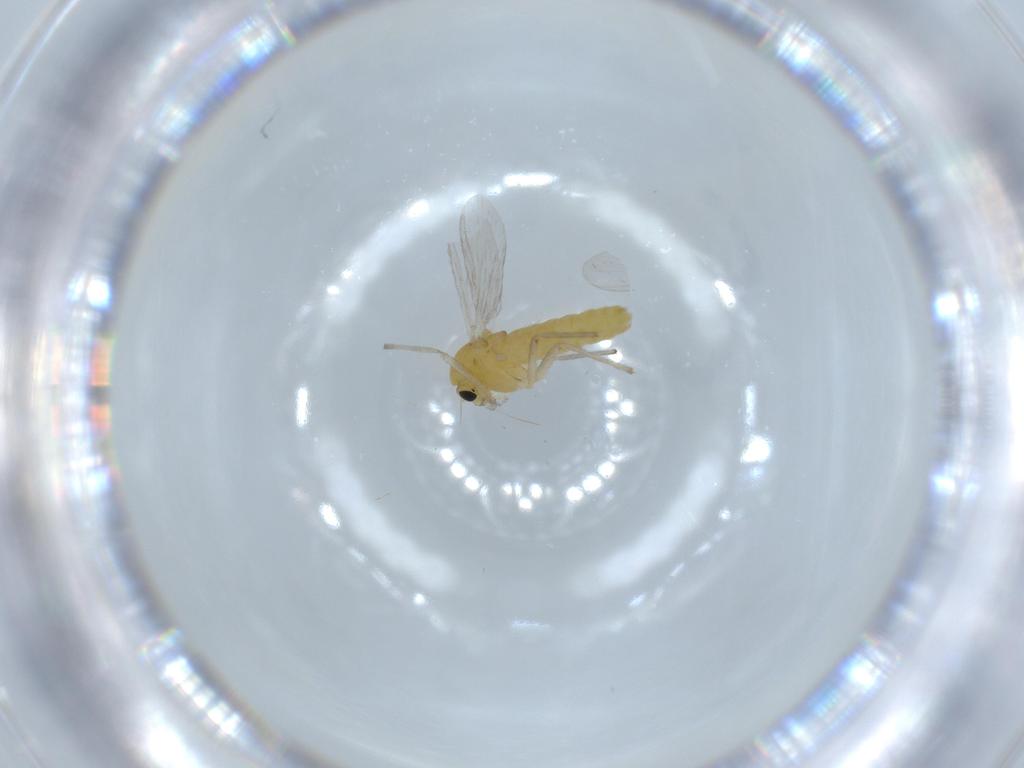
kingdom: Animalia
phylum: Arthropoda
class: Insecta
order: Diptera
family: Chironomidae
